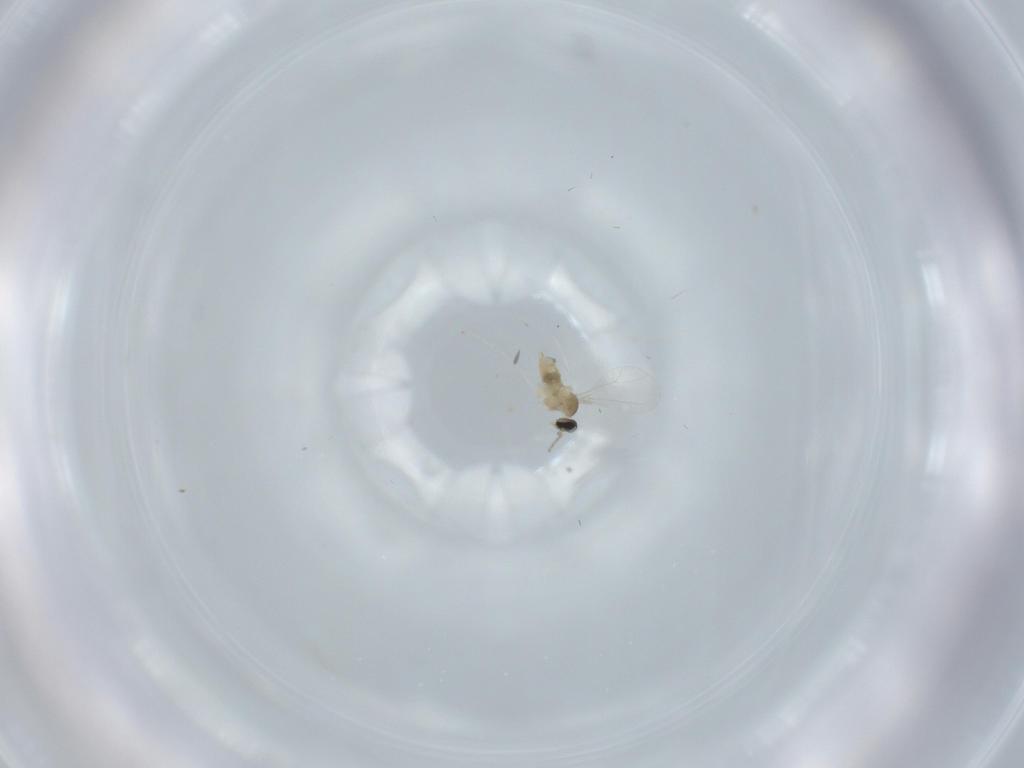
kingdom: Animalia
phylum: Arthropoda
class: Insecta
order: Diptera
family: Cecidomyiidae
